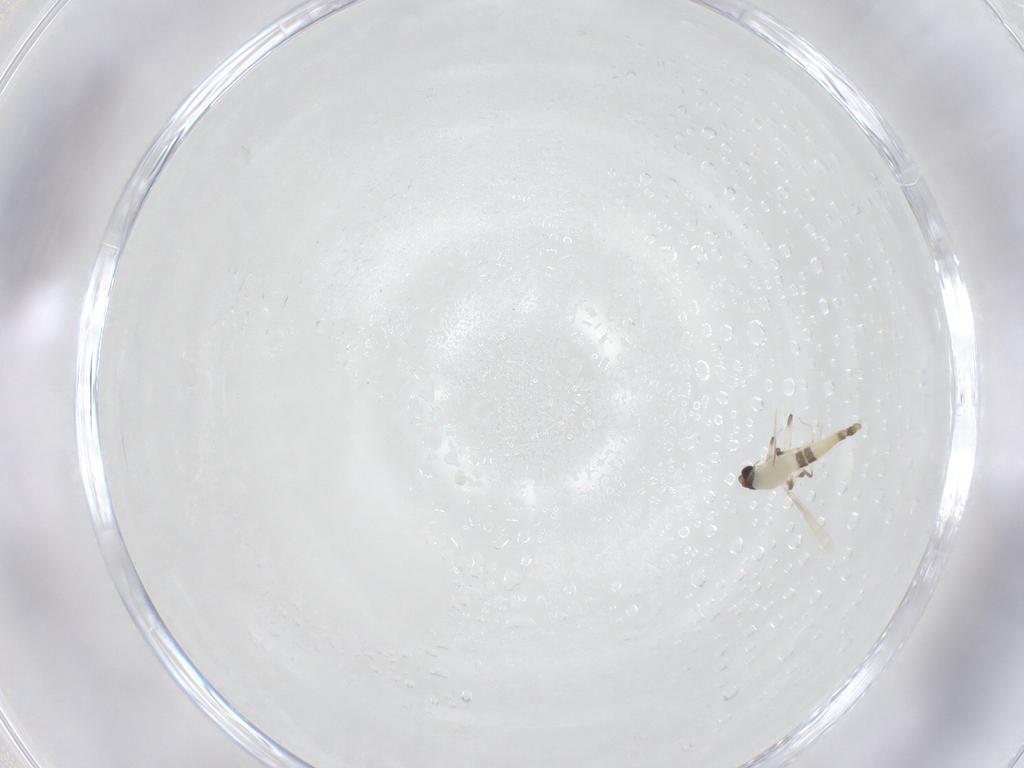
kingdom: Animalia
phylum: Arthropoda
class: Insecta
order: Diptera
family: Chironomidae
